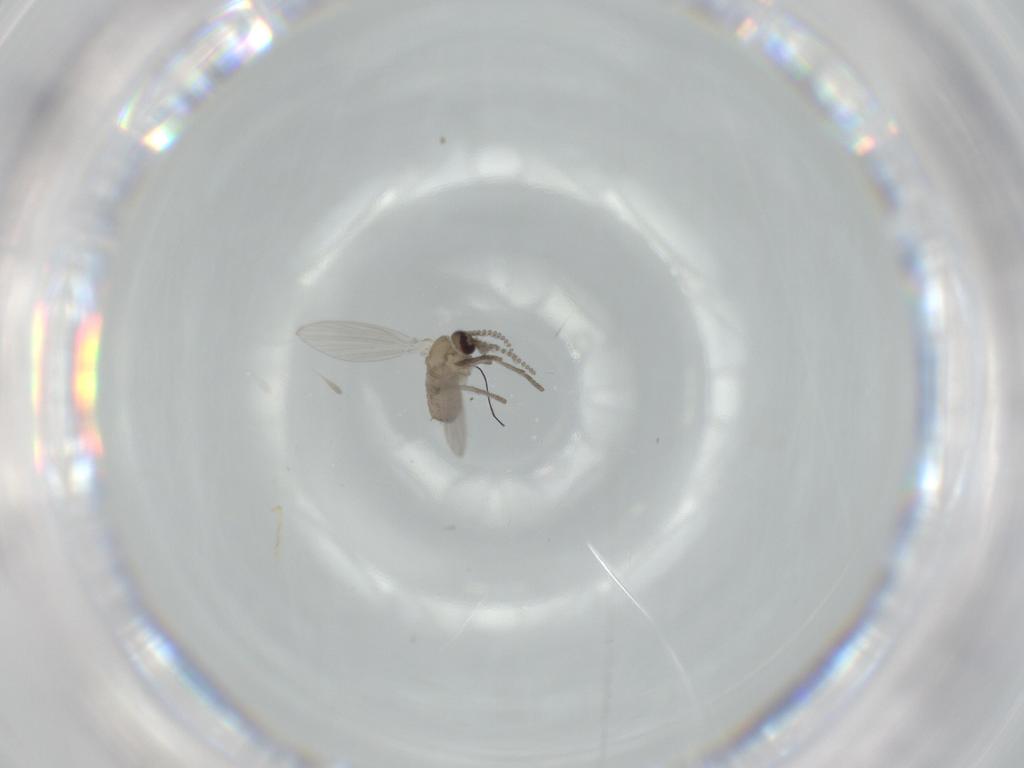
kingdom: Animalia
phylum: Arthropoda
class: Insecta
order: Diptera
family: Psychodidae
